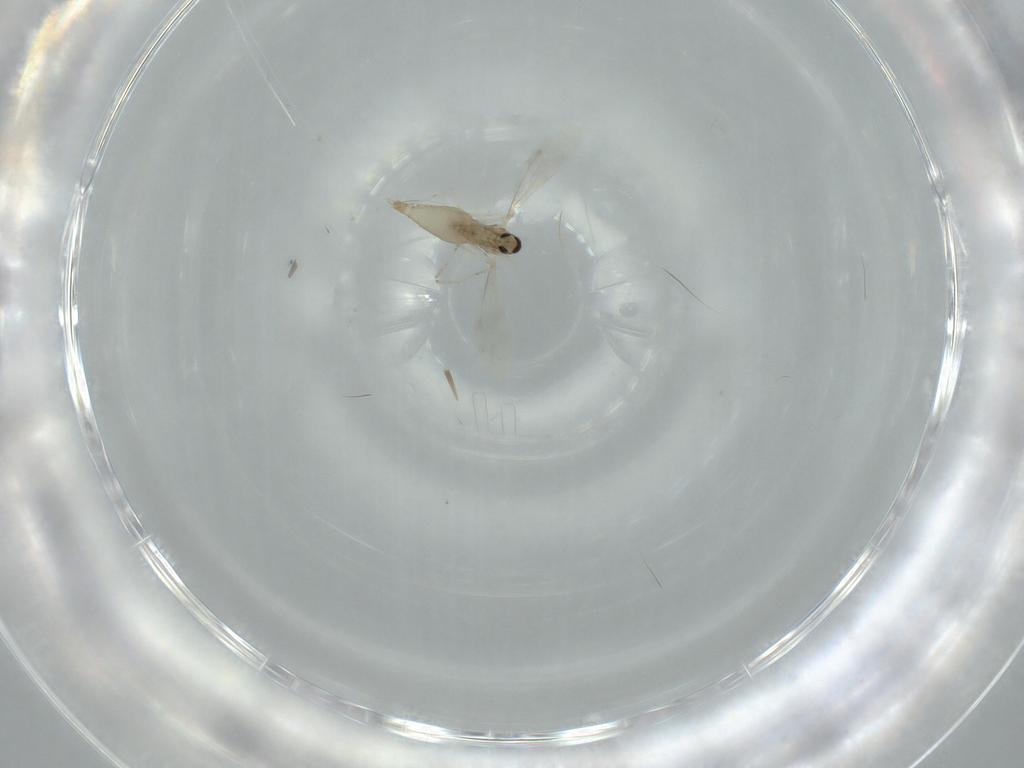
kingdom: Animalia
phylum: Arthropoda
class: Insecta
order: Diptera
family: Cecidomyiidae
